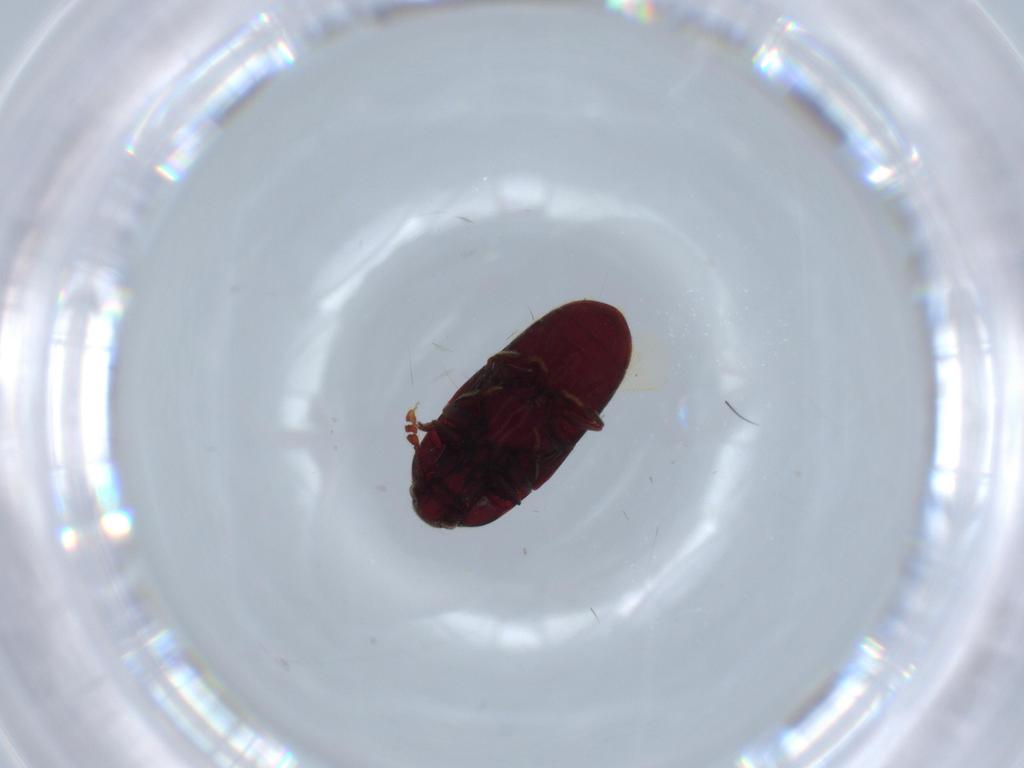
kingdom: Animalia
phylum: Arthropoda
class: Insecta
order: Coleoptera
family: Throscidae
